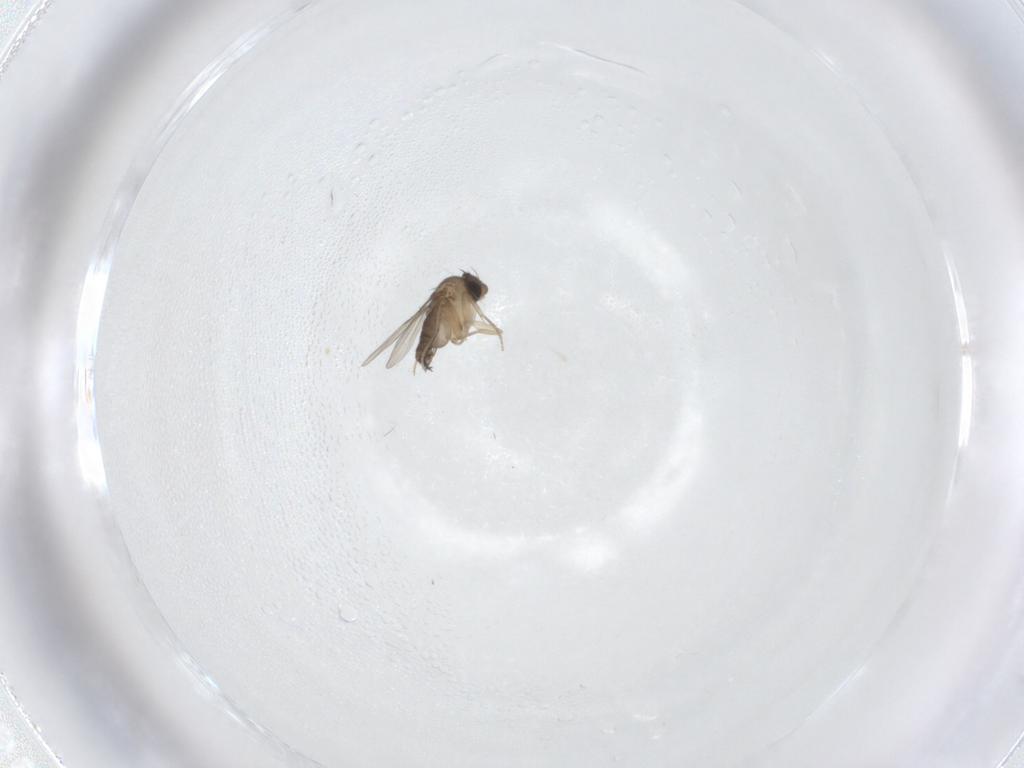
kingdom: Animalia
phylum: Arthropoda
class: Insecta
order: Diptera
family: Phoridae
